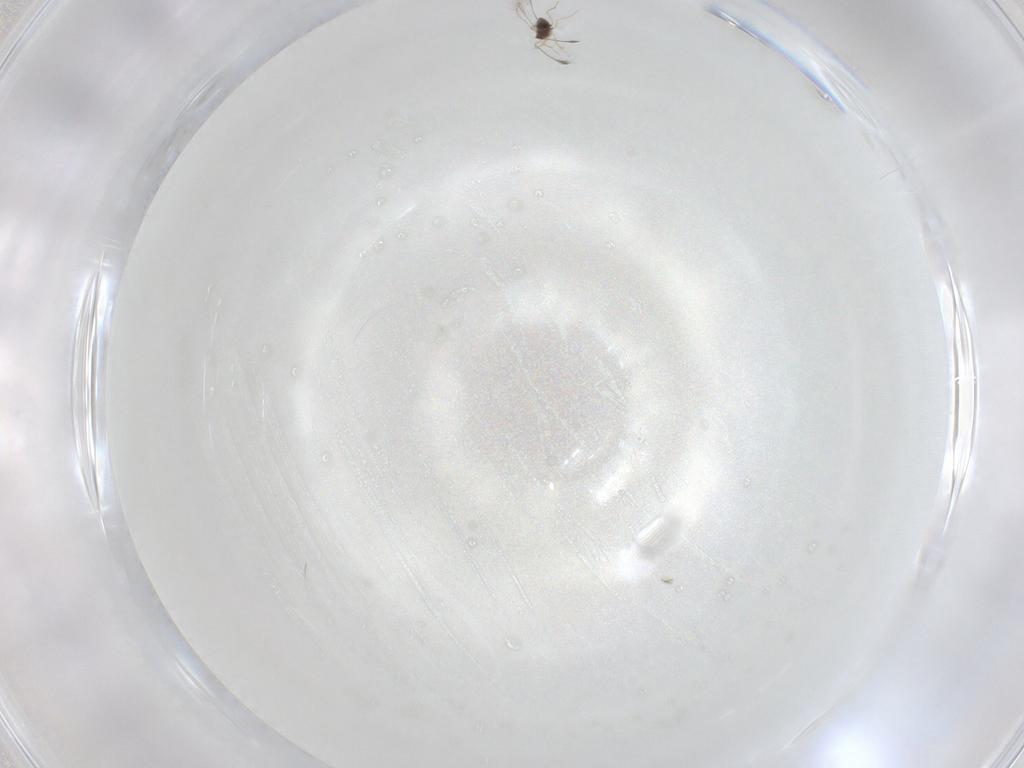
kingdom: Animalia
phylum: Arthropoda
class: Insecta
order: Hymenoptera
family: Mymaridae
